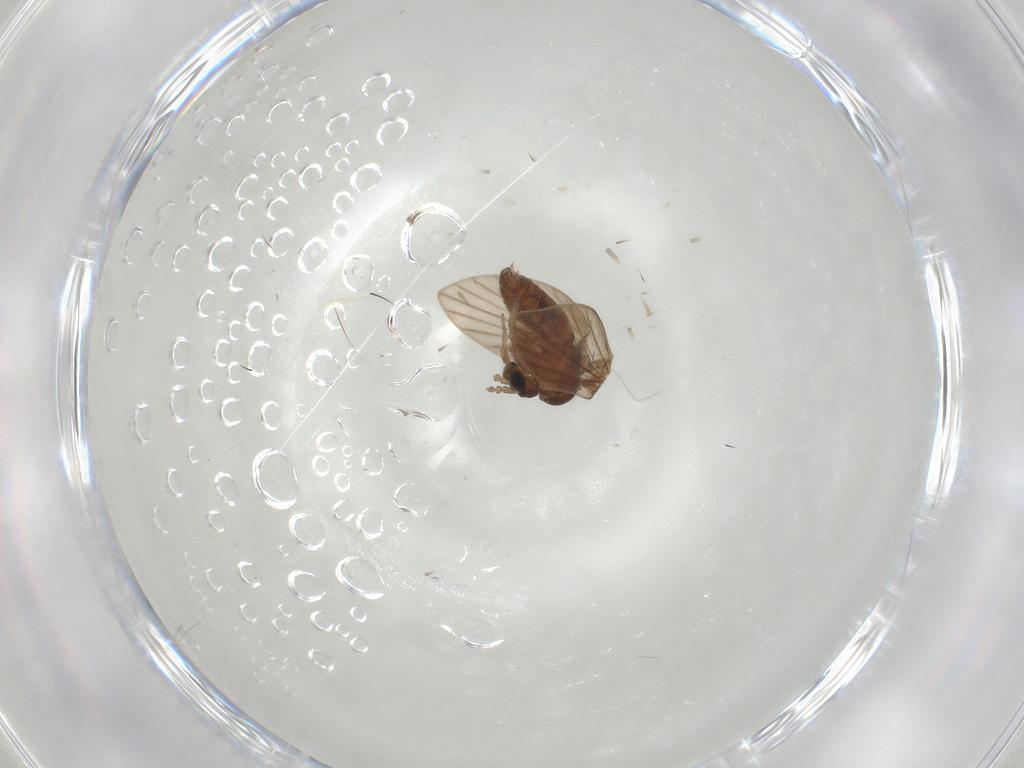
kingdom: Animalia
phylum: Arthropoda
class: Insecta
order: Diptera
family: Psychodidae
